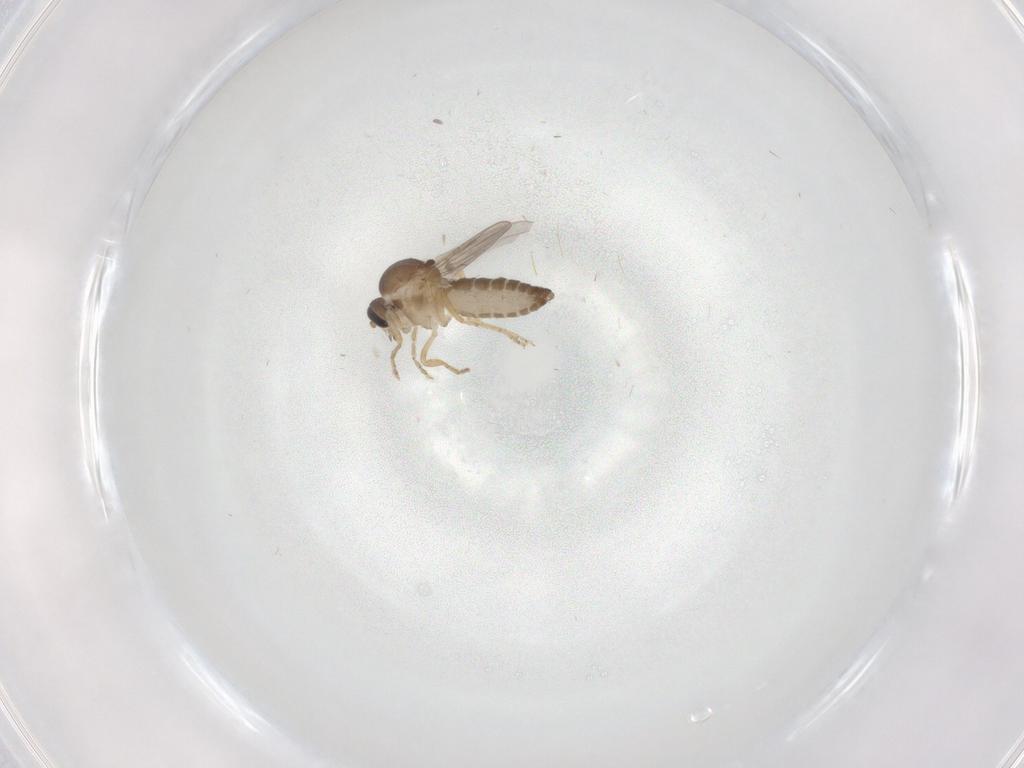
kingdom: Animalia
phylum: Arthropoda
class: Insecta
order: Diptera
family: Ceratopogonidae
